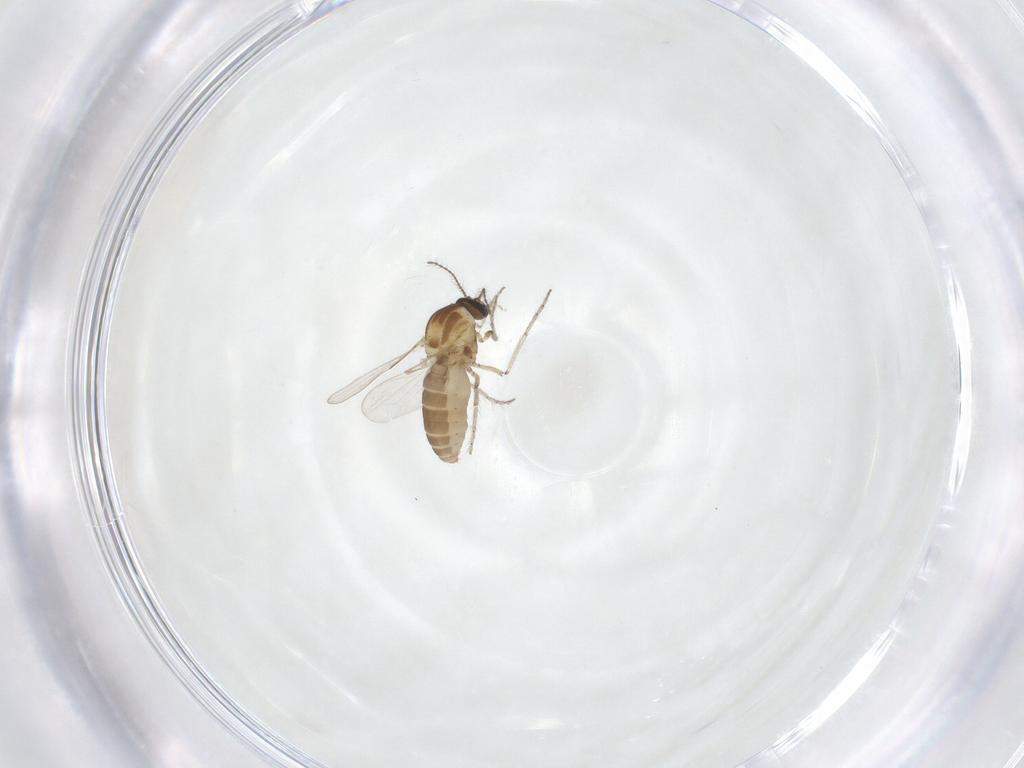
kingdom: Animalia
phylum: Arthropoda
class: Insecta
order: Diptera
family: Ceratopogonidae
